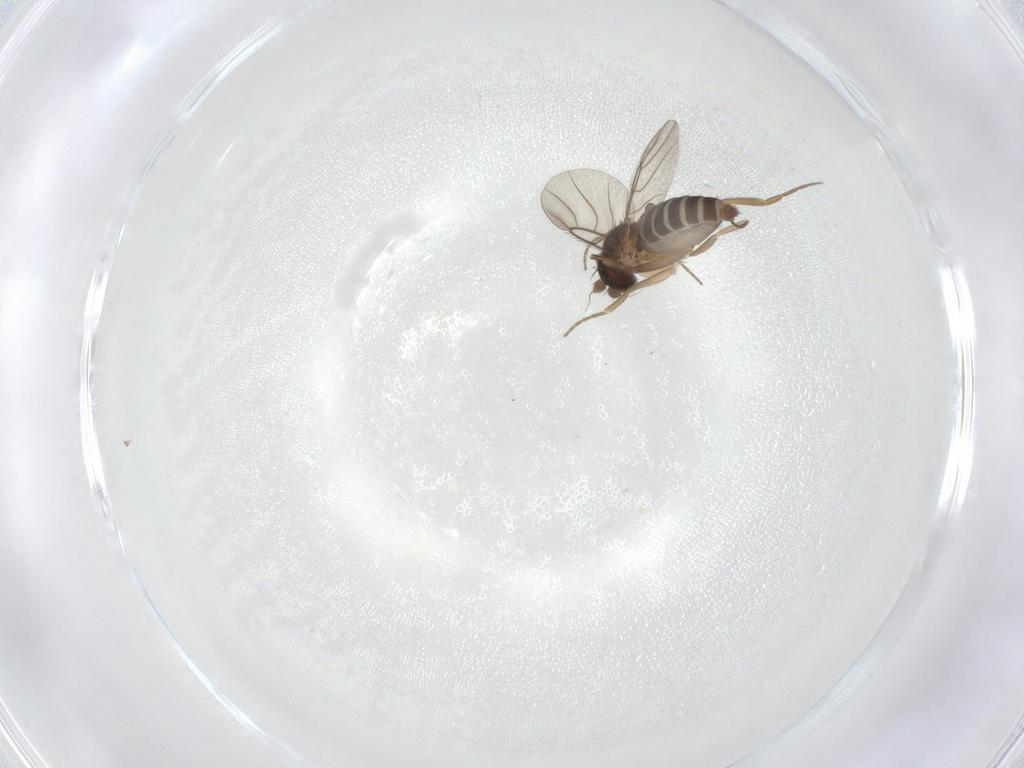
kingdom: Animalia
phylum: Arthropoda
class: Insecta
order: Diptera
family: Phoridae
